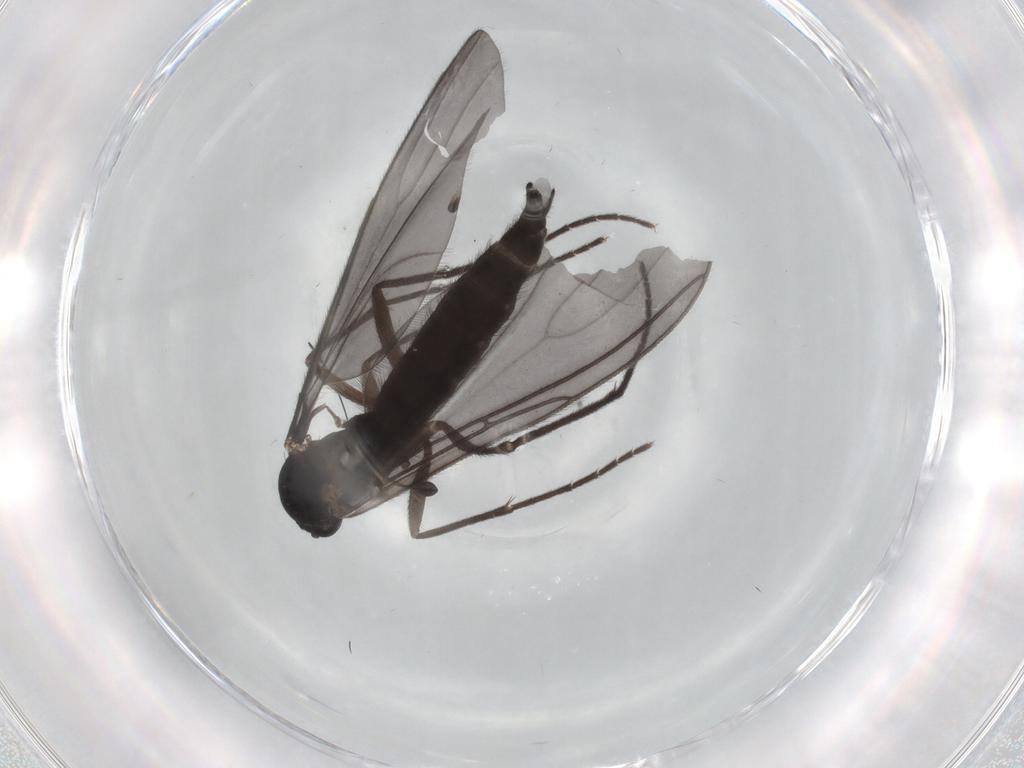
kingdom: Animalia
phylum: Arthropoda
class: Insecta
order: Diptera
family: Sciaridae
